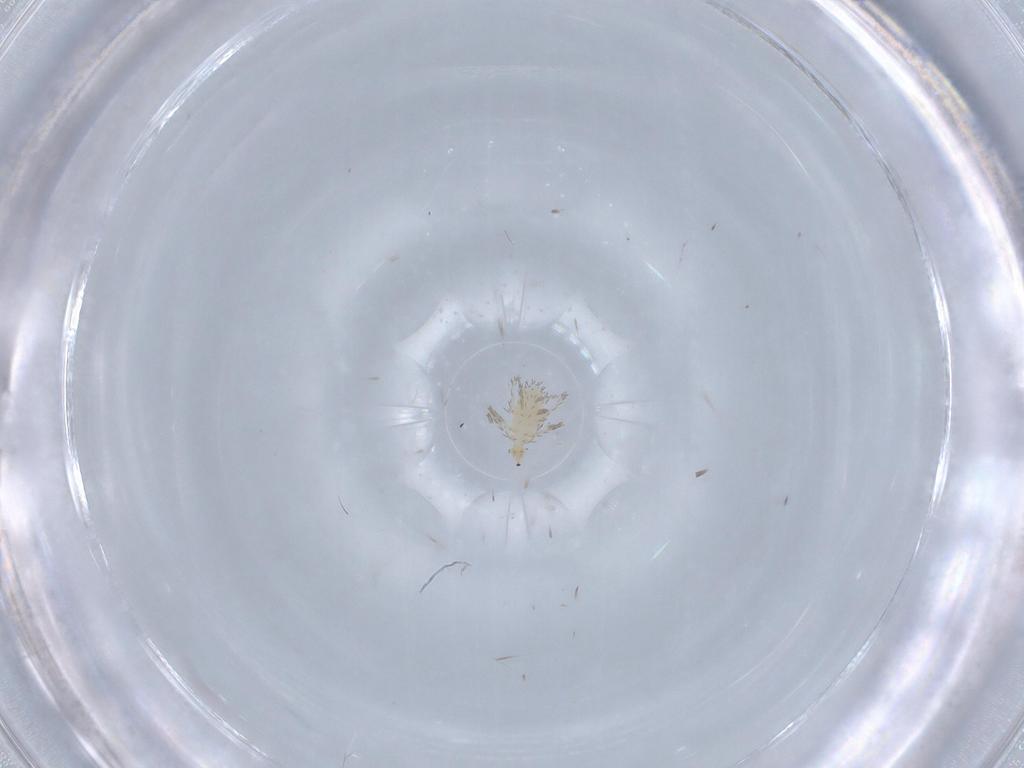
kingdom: Animalia
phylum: Arthropoda
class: Arachnida
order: Trombidiformes
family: Erythraeidae
